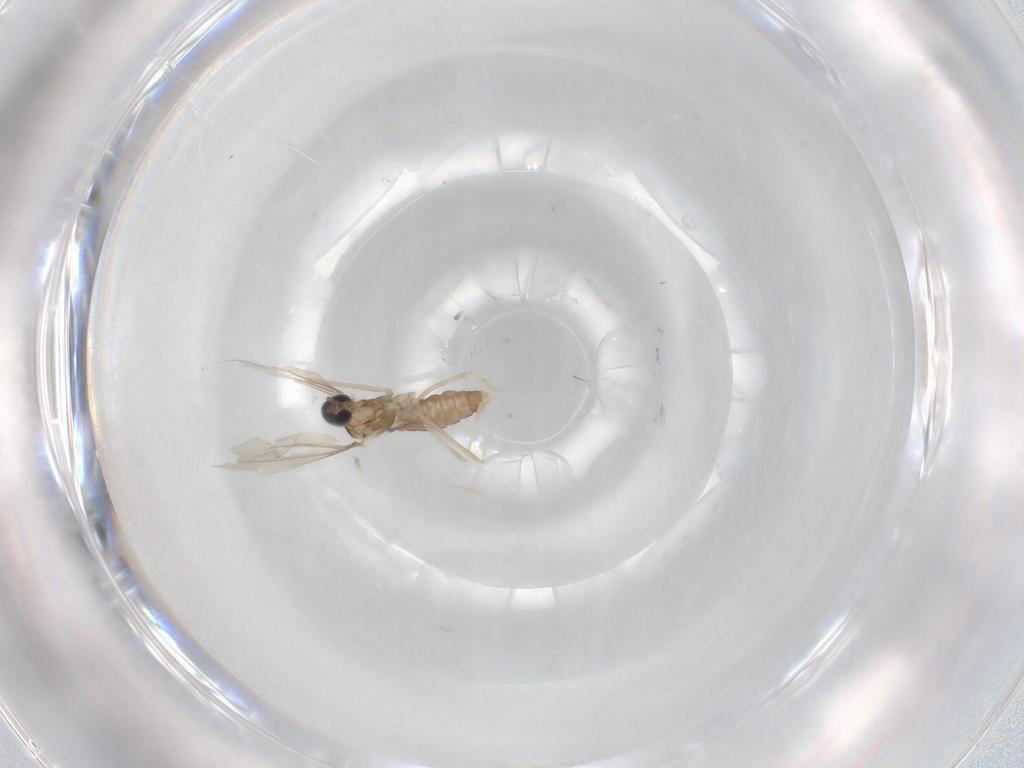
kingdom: Animalia
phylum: Arthropoda
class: Insecta
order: Diptera
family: Cecidomyiidae
